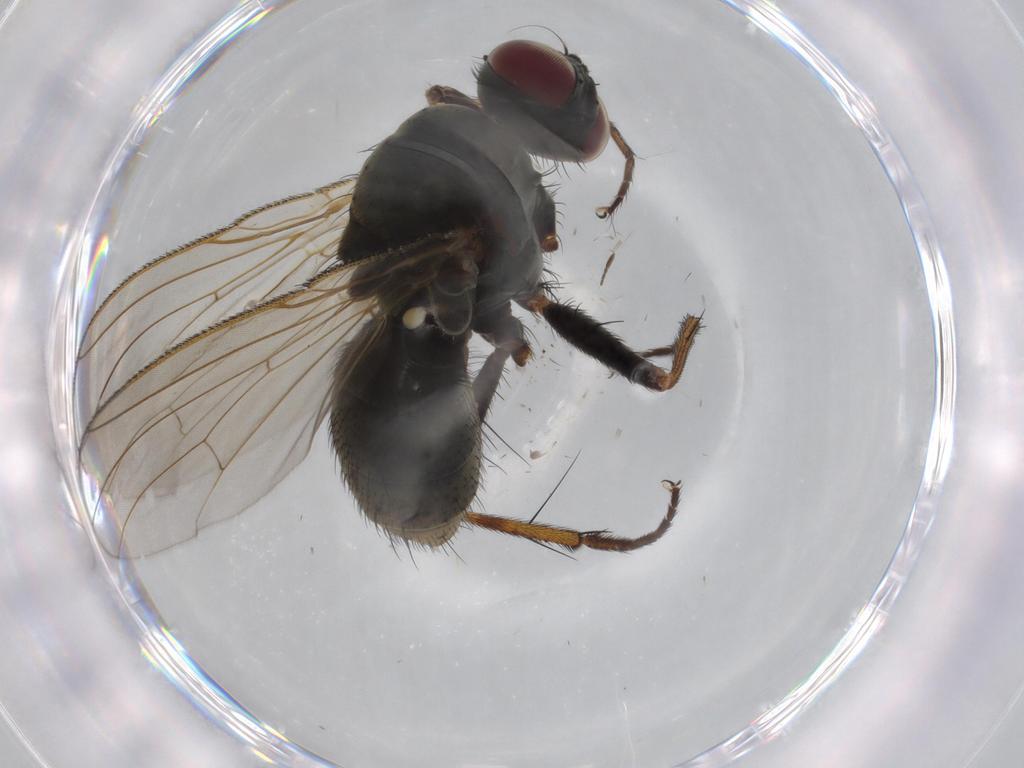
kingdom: Animalia
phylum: Arthropoda
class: Insecta
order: Diptera
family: Muscidae
